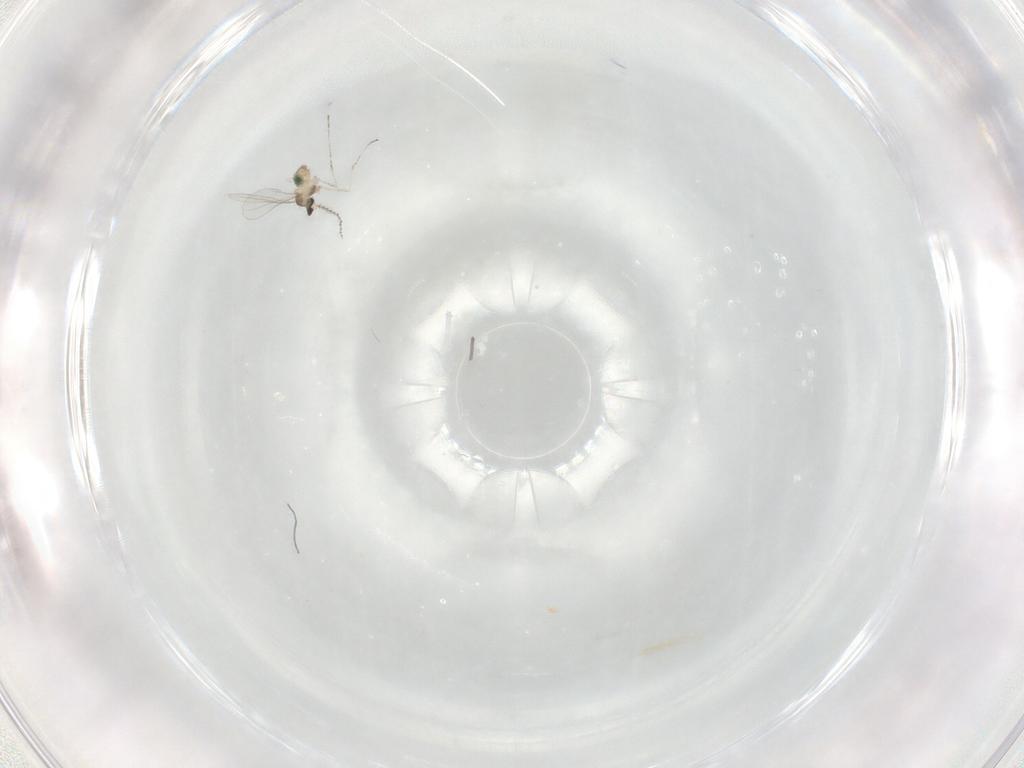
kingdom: Animalia
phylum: Arthropoda
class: Insecta
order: Diptera
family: Cecidomyiidae
